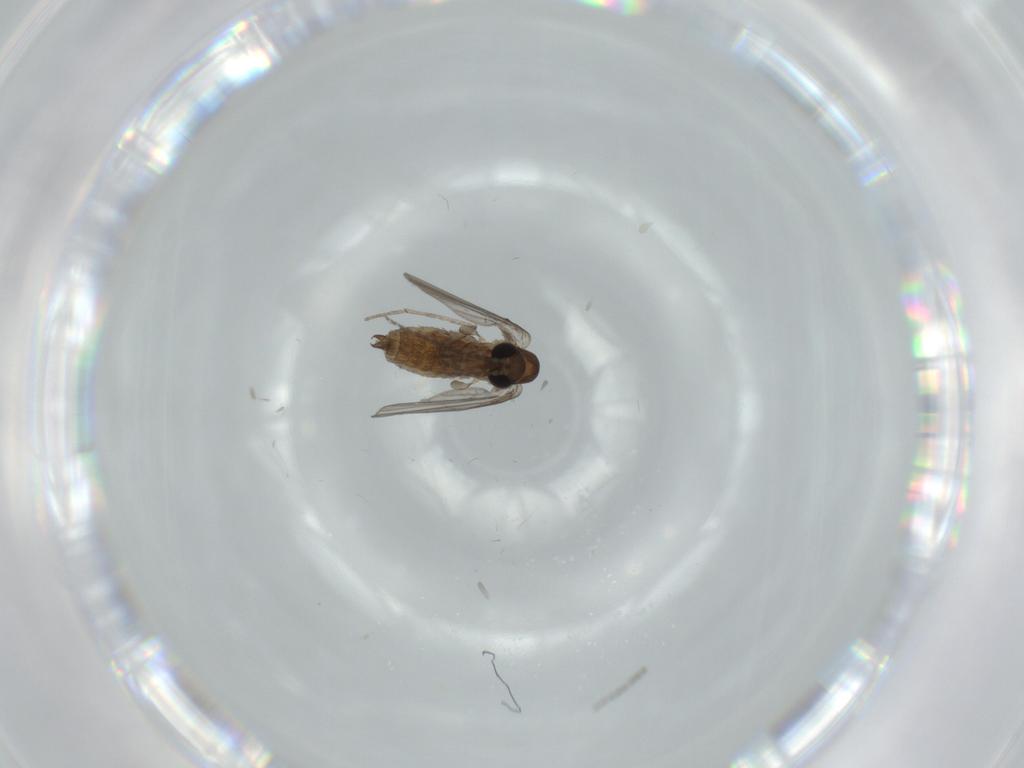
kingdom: Animalia
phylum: Arthropoda
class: Insecta
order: Diptera
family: Psychodidae
